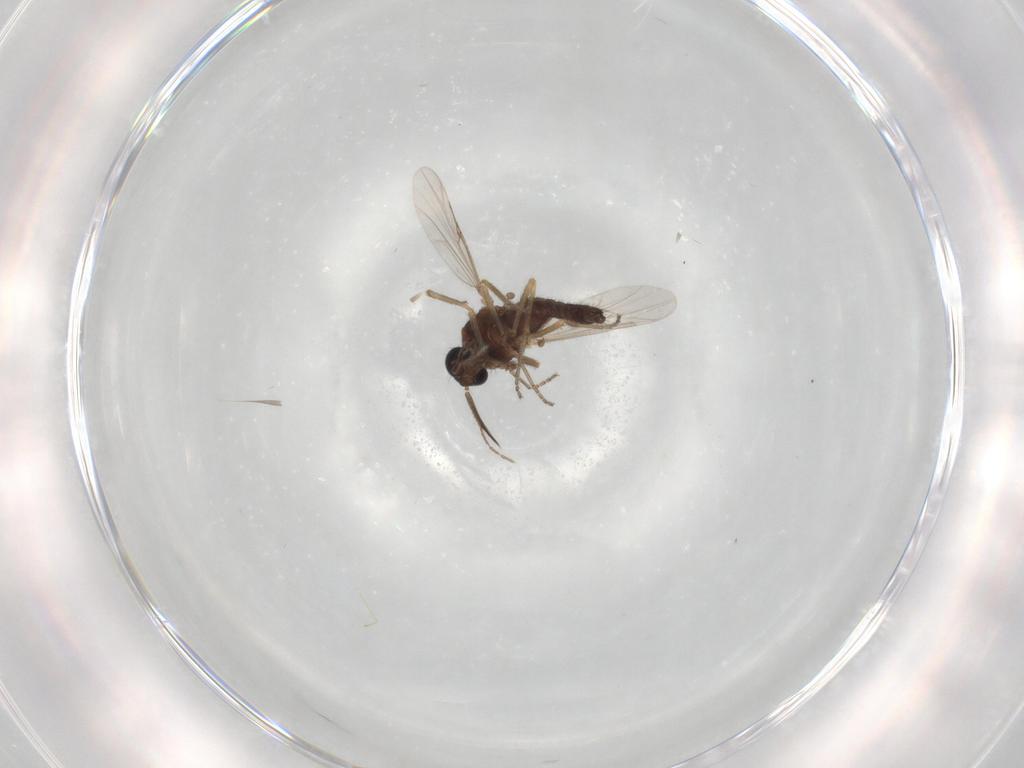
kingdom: Animalia
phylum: Arthropoda
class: Insecta
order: Diptera
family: Ceratopogonidae
